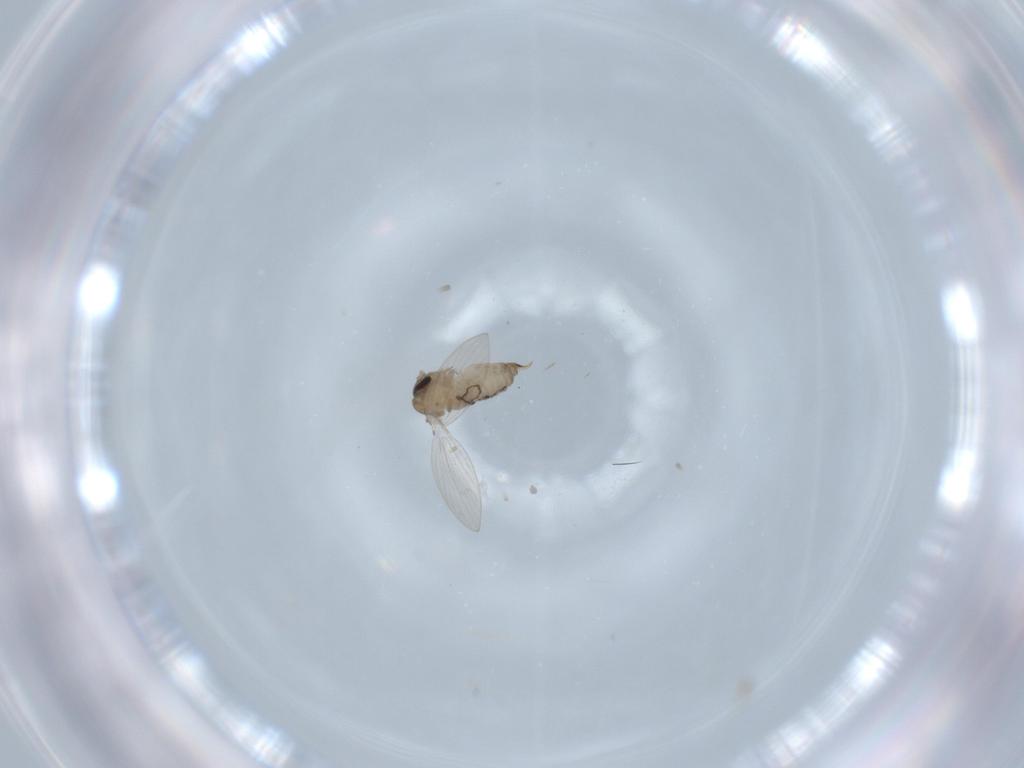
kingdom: Animalia
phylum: Arthropoda
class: Insecta
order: Diptera
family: Psychodidae
